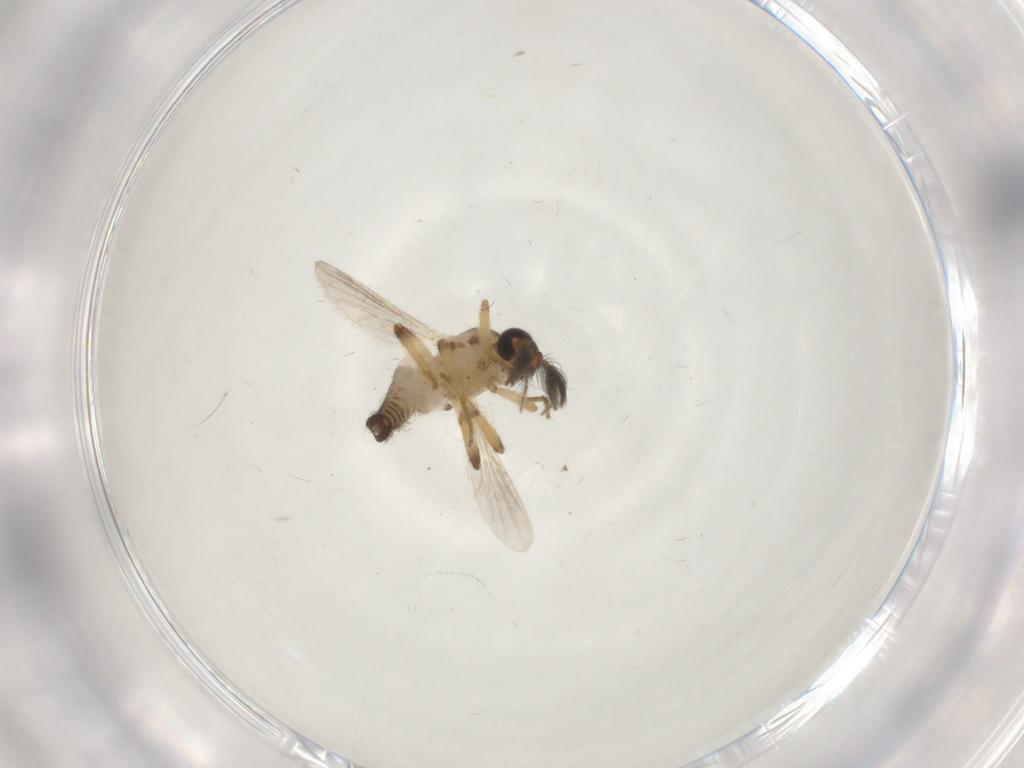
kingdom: Animalia
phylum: Arthropoda
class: Insecta
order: Diptera
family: Ceratopogonidae
